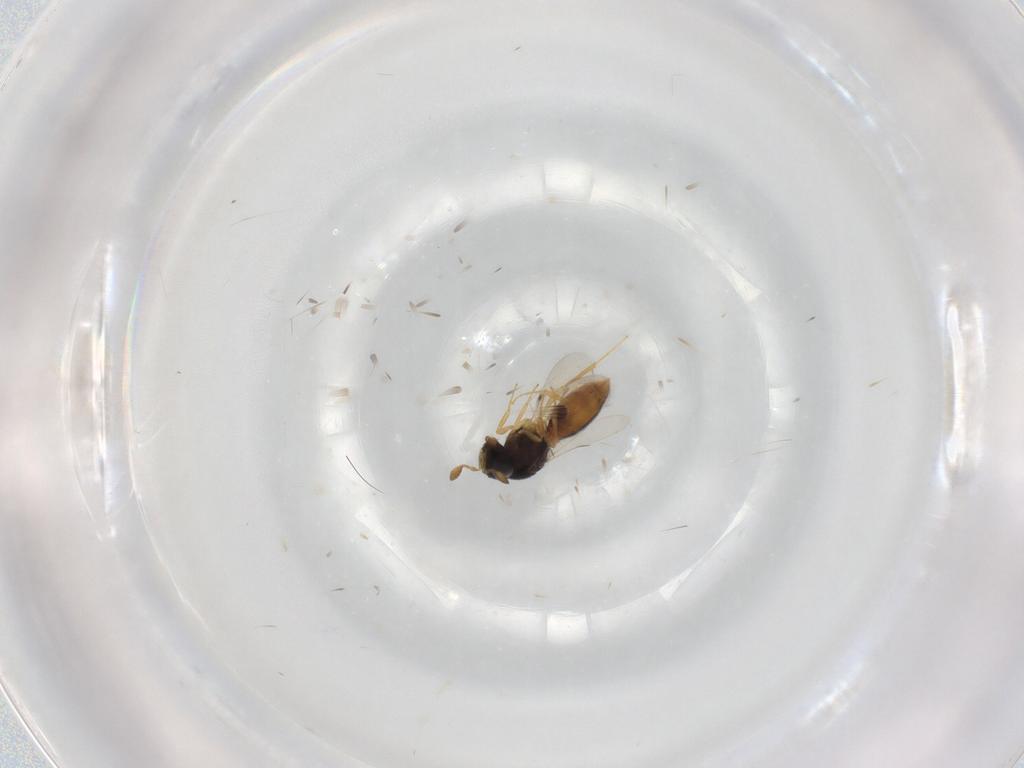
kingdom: Animalia
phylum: Arthropoda
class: Insecta
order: Hymenoptera
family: Scelionidae
